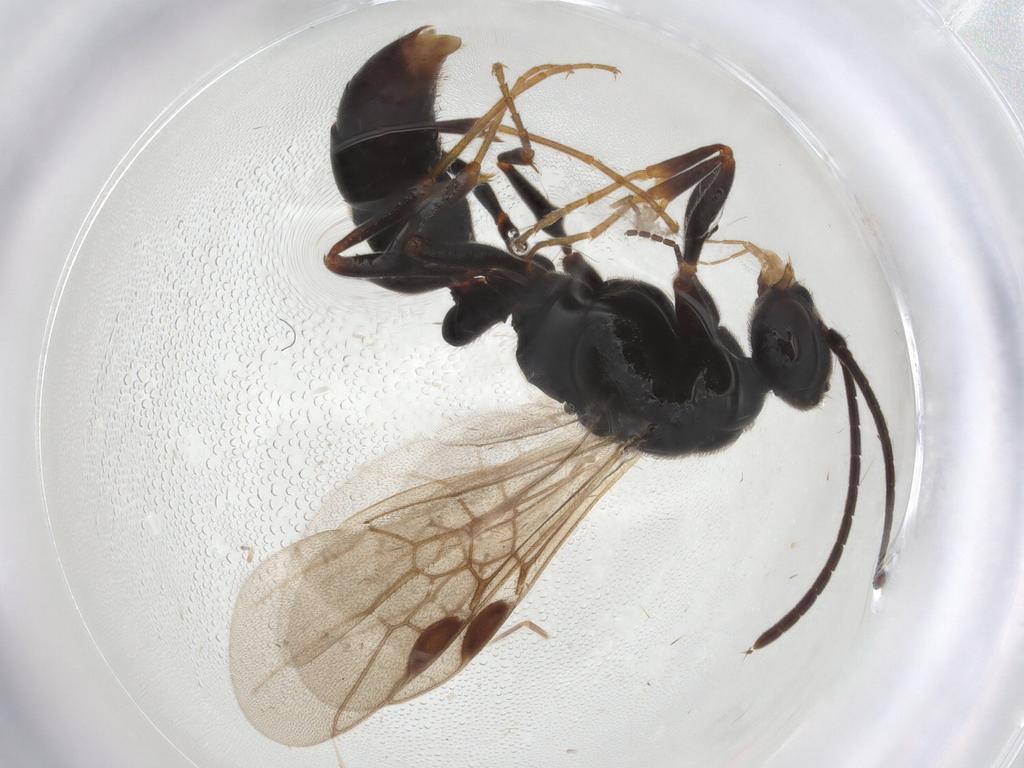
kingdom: Animalia
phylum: Arthropoda
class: Insecta
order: Hymenoptera
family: Formicidae
